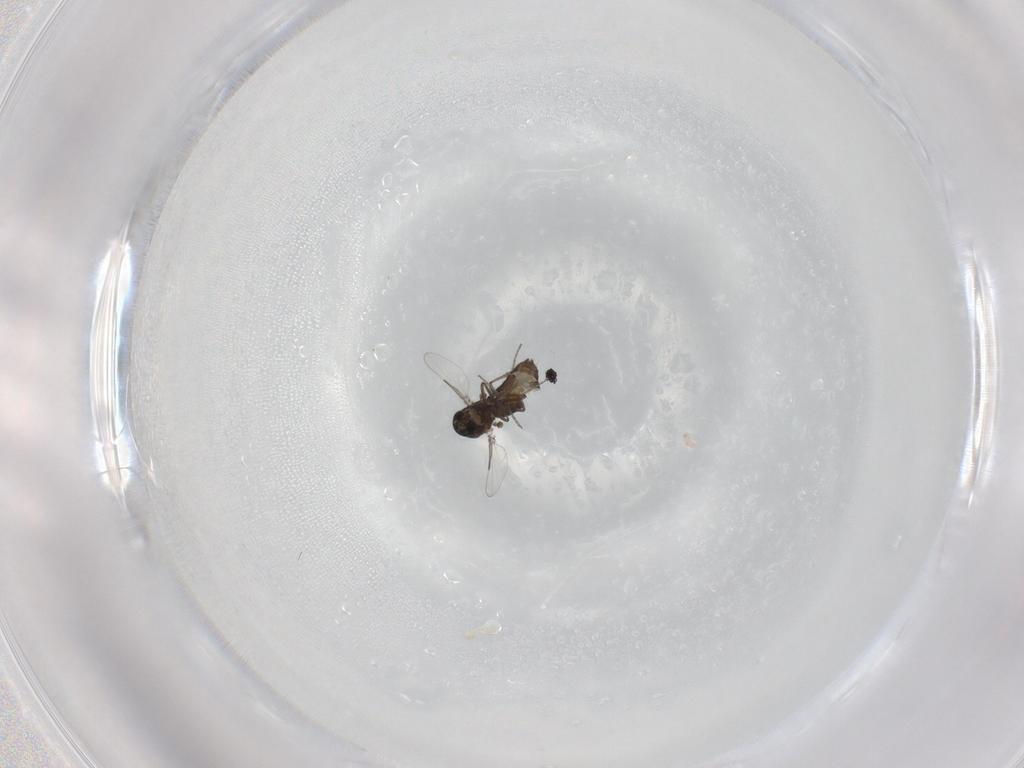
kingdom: Animalia
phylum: Arthropoda
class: Insecta
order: Diptera
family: Ceratopogonidae
